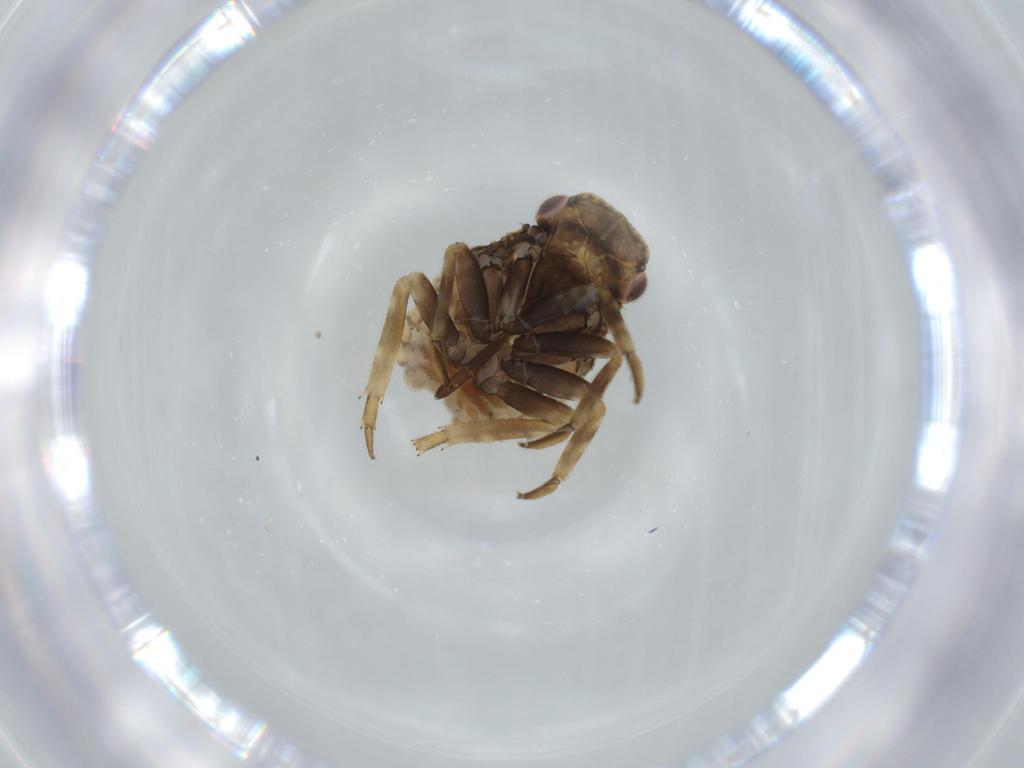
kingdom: Animalia
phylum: Arthropoda
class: Insecta
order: Hemiptera
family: Fulgoroidea_incertae_sedis
